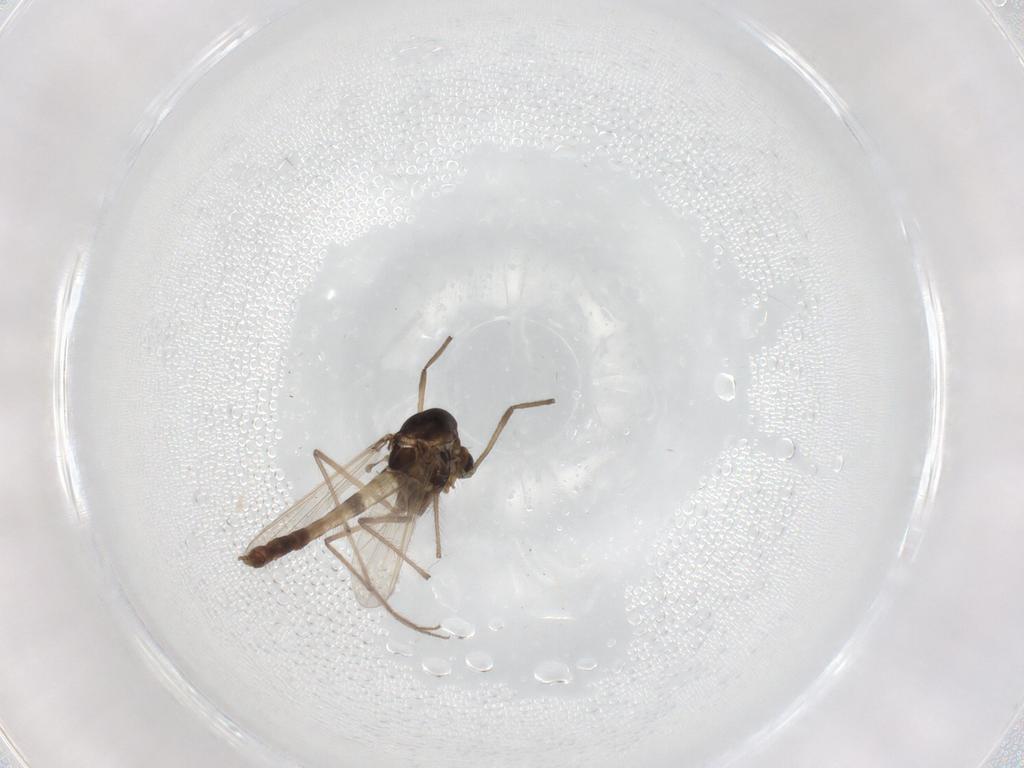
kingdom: Animalia
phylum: Arthropoda
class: Insecta
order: Diptera
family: Chironomidae
